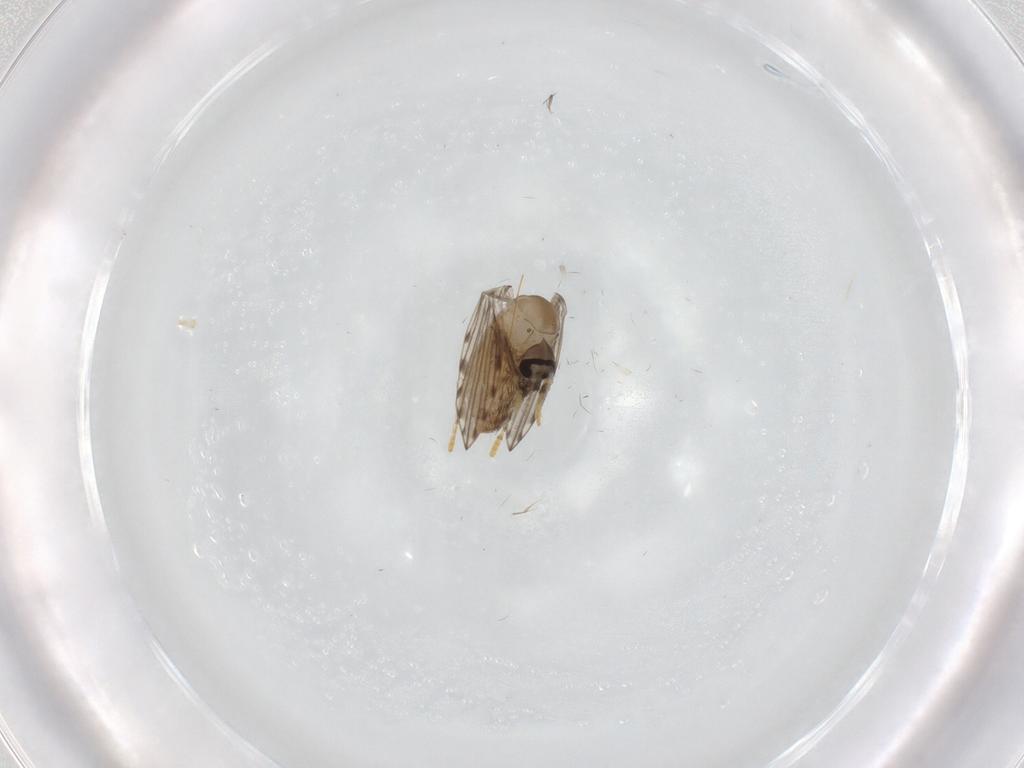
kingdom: Animalia
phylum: Arthropoda
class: Insecta
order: Diptera
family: Psychodidae
